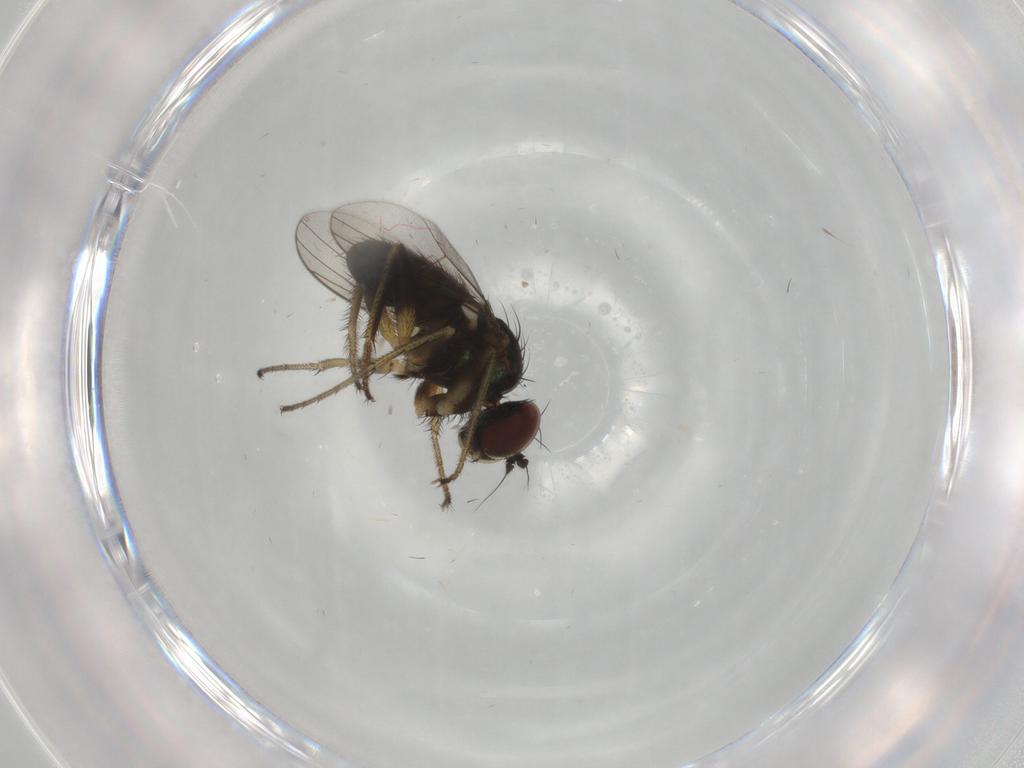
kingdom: Animalia
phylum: Arthropoda
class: Insecta
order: Diptera
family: Dolichopodidae
